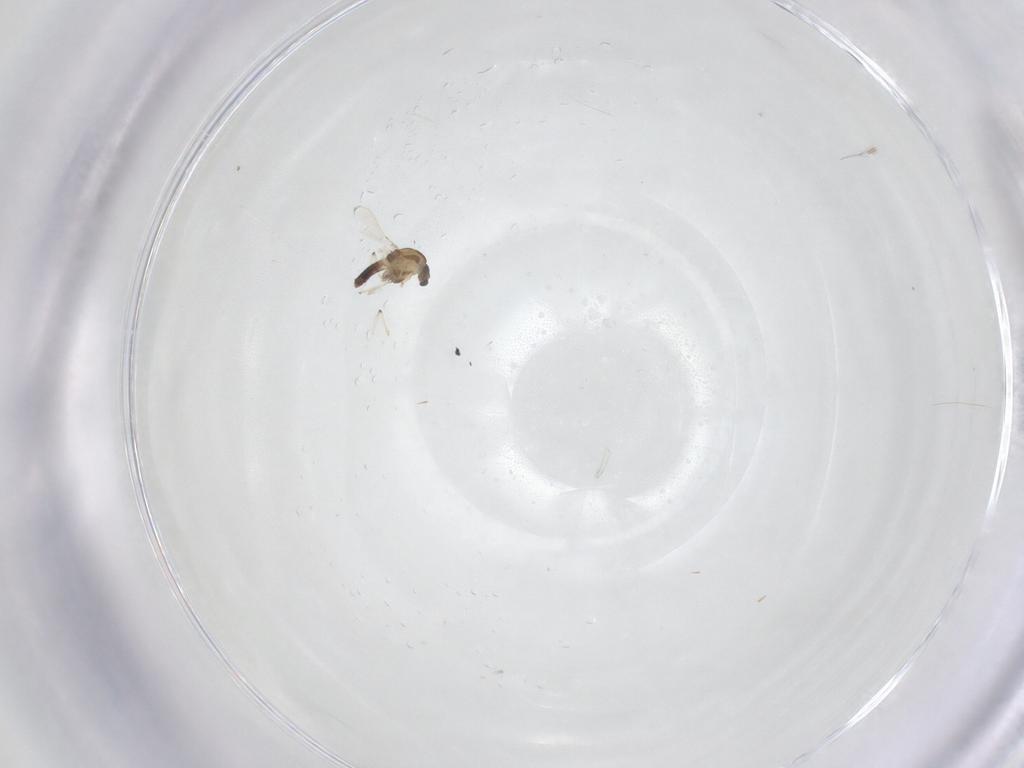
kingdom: Animalia
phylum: Arthropoda
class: Insecta
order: Diptera
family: Chironomidae
